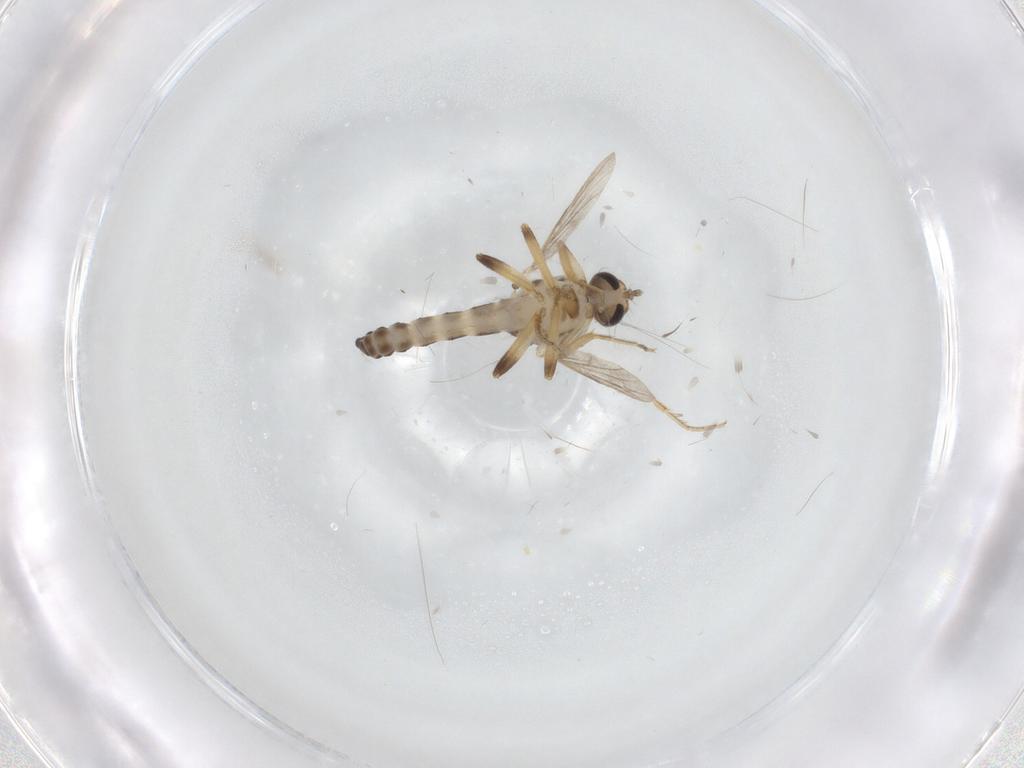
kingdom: Animalia
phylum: Arthropoda
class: Insecta
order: Diptera
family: Ceratopogonidae
